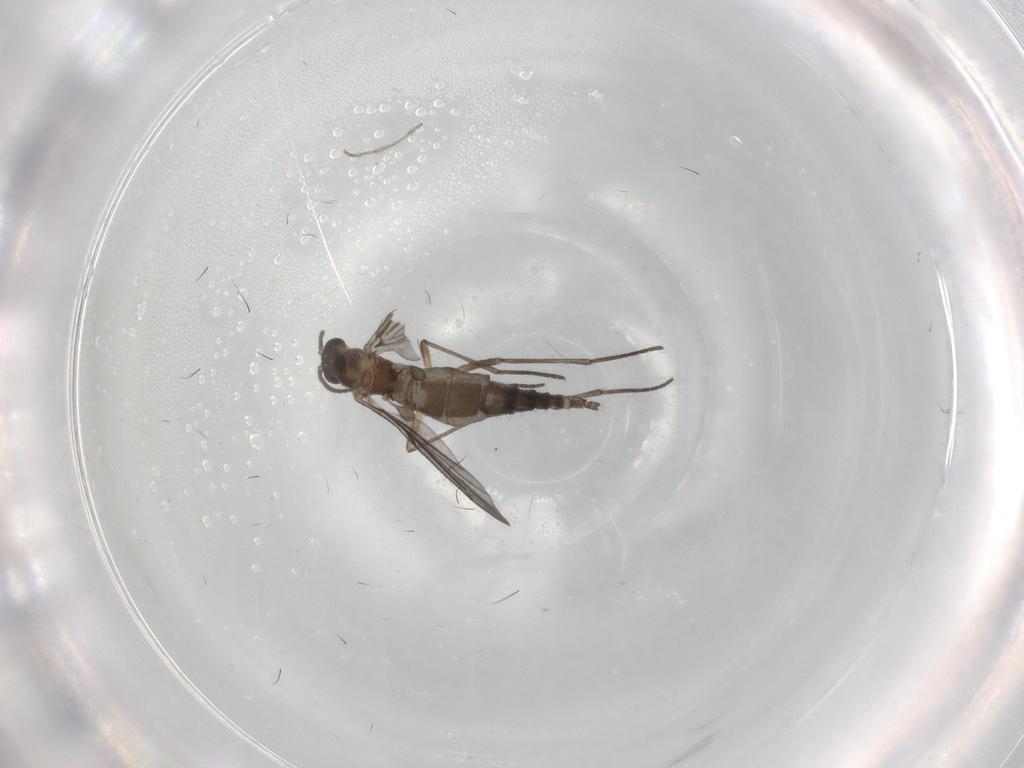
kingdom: Animalia
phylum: Arthropoda
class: Insecta
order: Diptera
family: Sciaridae
